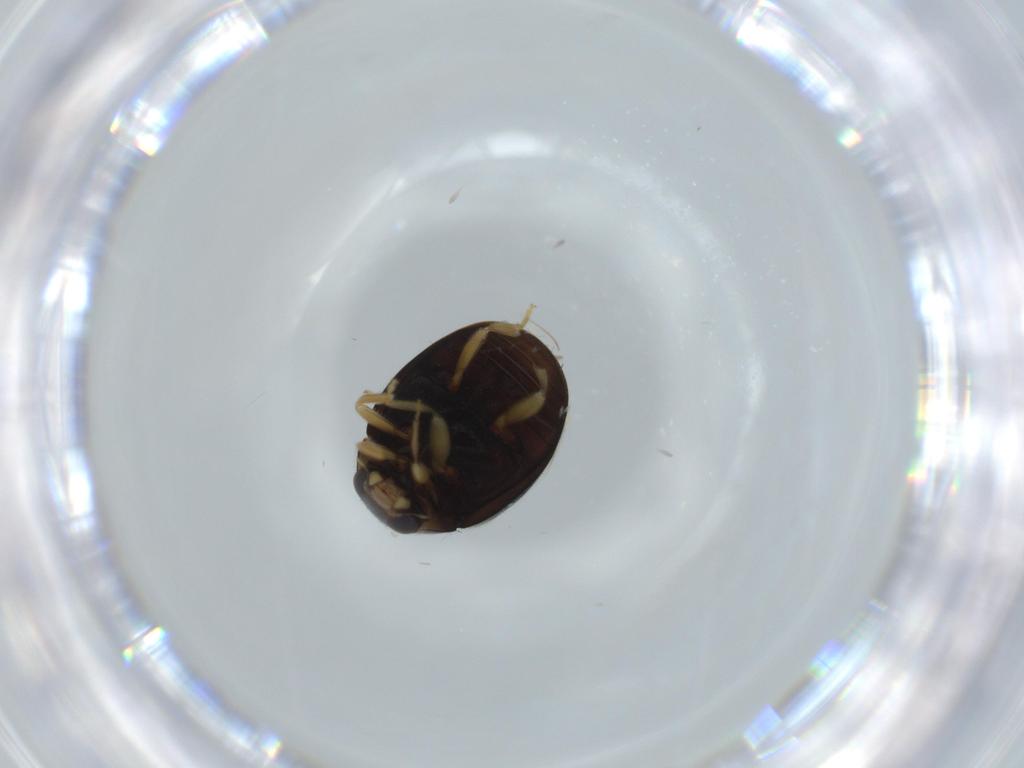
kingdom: Animalia
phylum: Arthropoda
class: Insecta
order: Coleoptera
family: Coccinellidae
